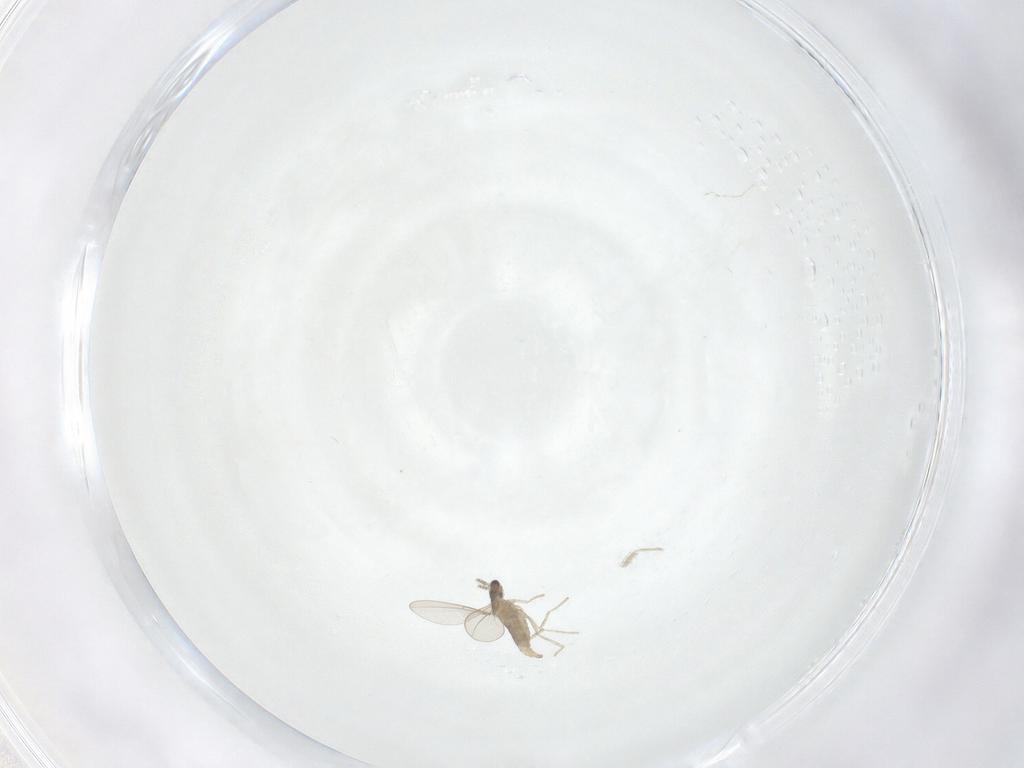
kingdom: Animalia
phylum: Arthropoda
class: Insecta
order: Diptera
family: Cecidomyiidae
